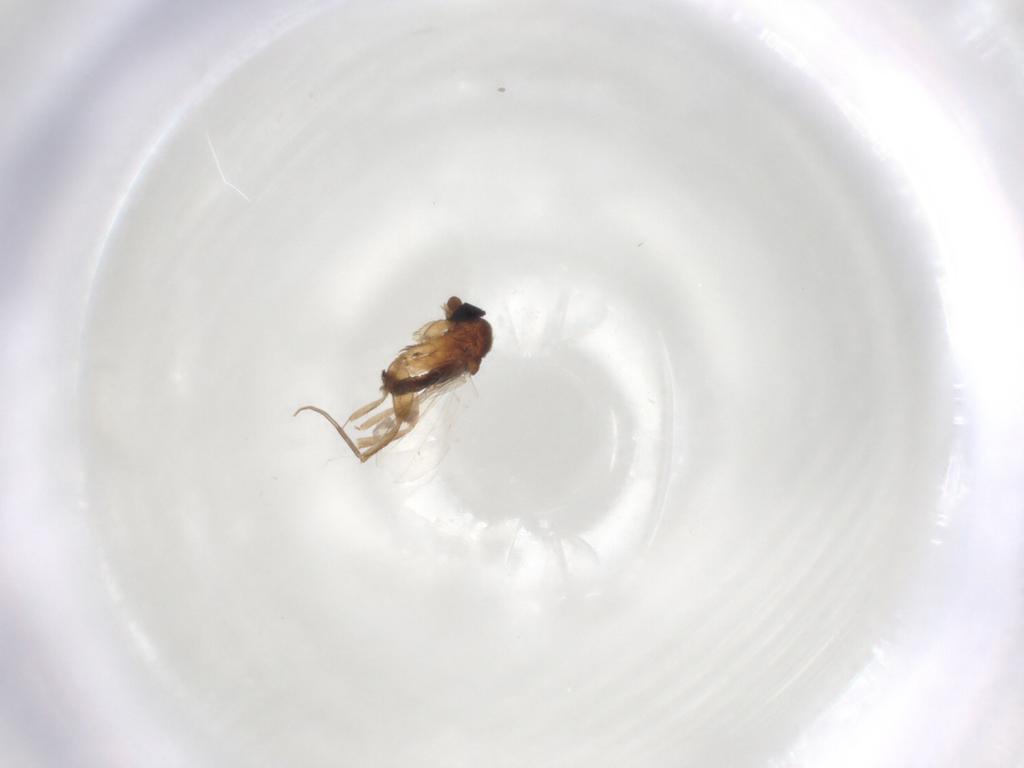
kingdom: Animalia
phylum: Arthropoda
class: Insecta
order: Diptera
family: Phoridae
